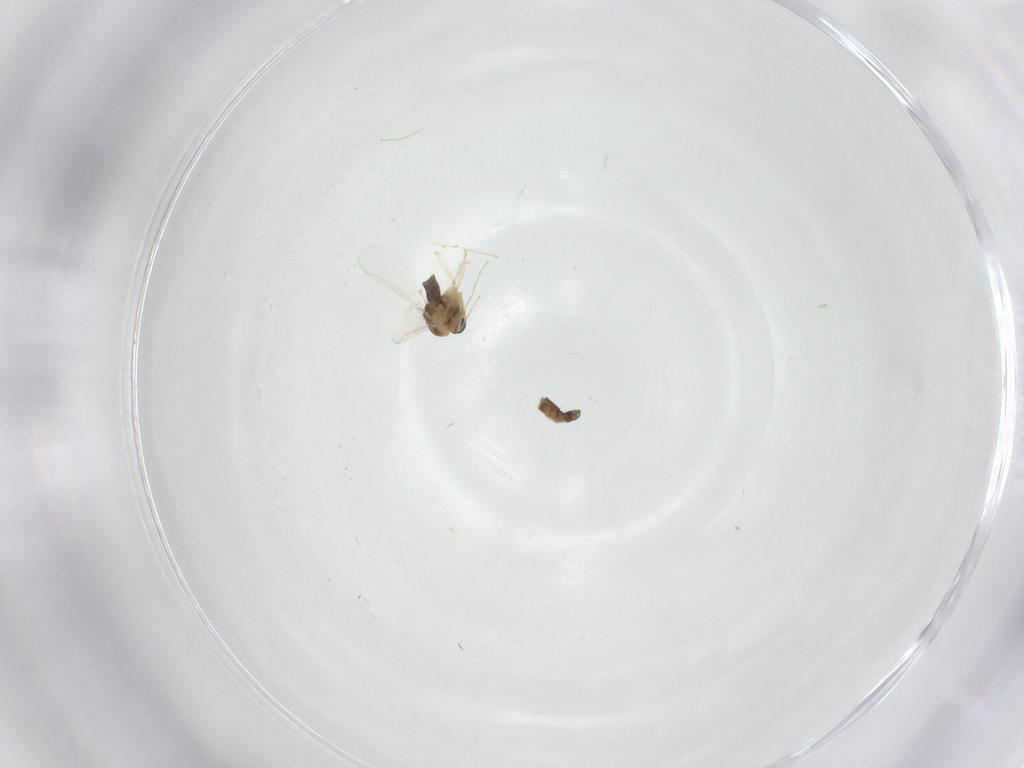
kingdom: Animalia
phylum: Arthropoda
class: Insecta
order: Diptera
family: Chironomidae
